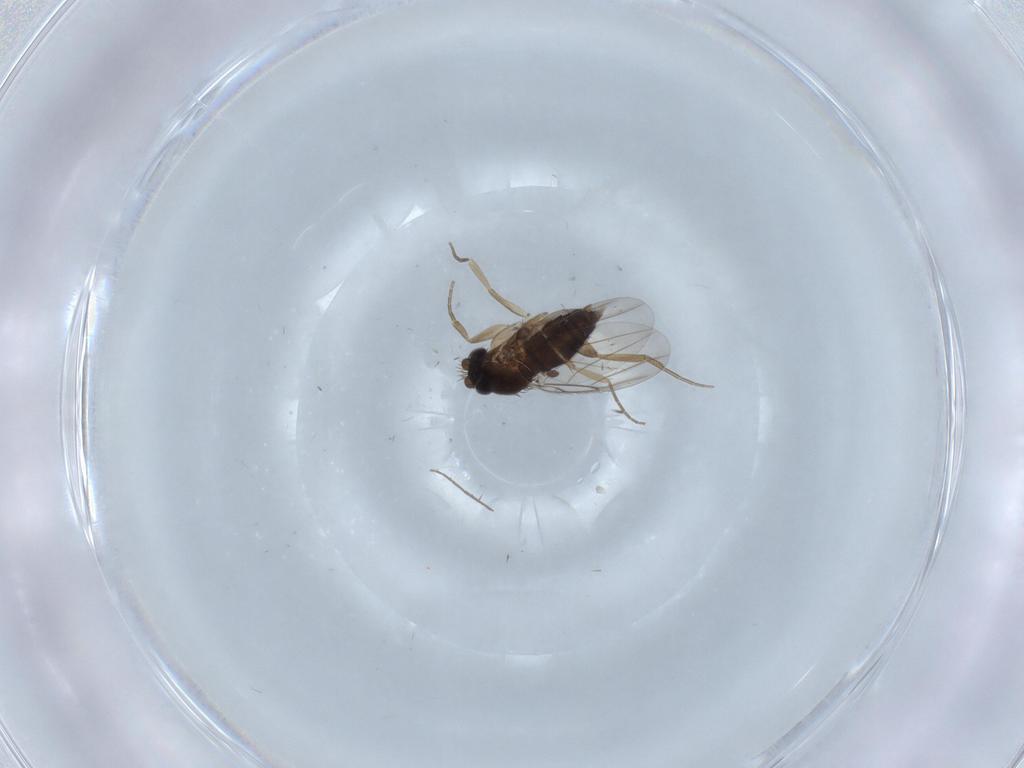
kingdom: Animalia
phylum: Arthropoda
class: Insecta
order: Diptera
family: Phoridae
